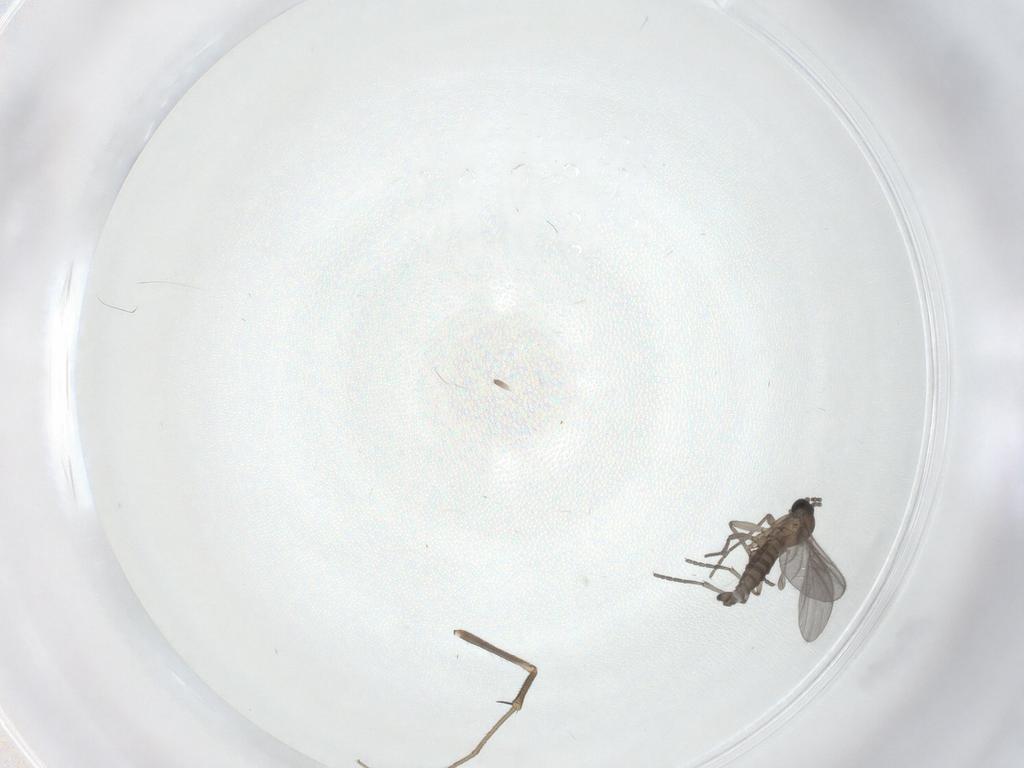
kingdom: Animalia
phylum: Arthropoda
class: Insecta
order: Diptera
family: Sciaridae
